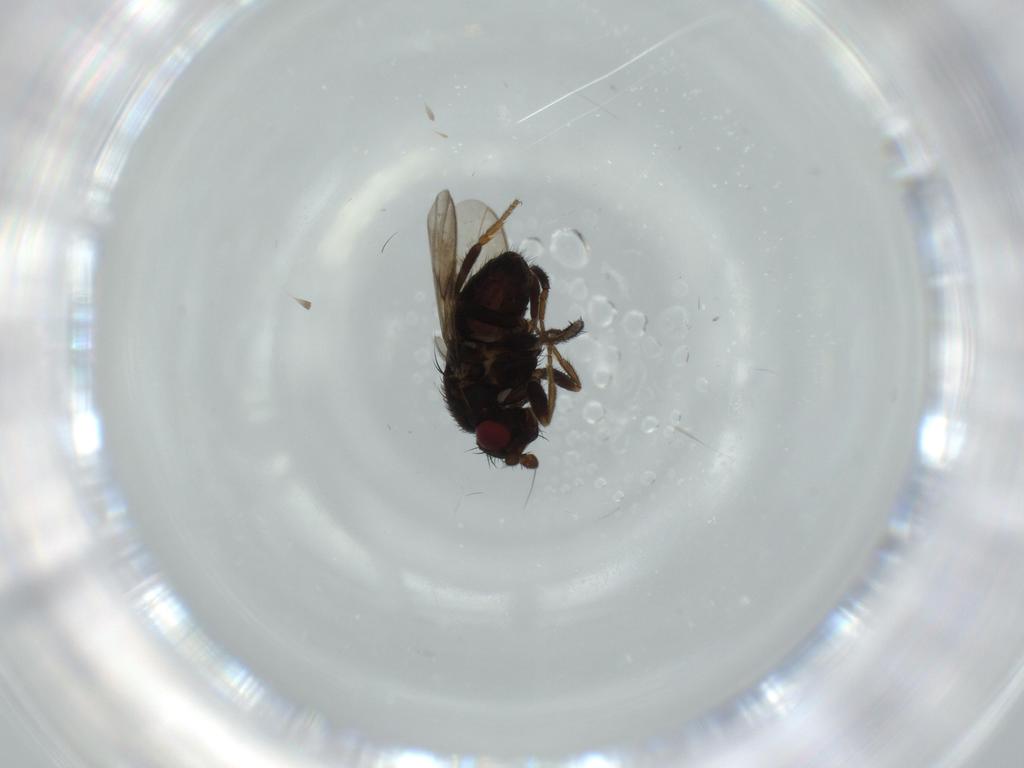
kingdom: Animalia
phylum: Arthropoda
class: Insecta
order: Diptera
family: Sphaeroceridae
